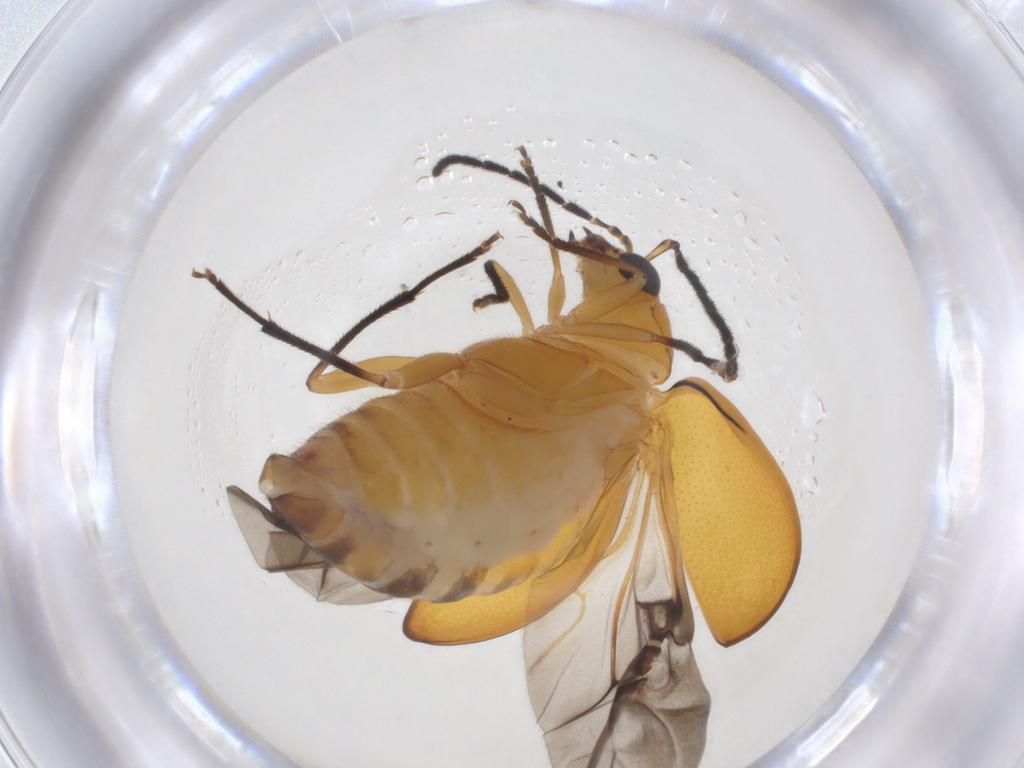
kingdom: Animalia
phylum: Arthropoda
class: Insecta
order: Coleoptera
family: Chrysomelidae
